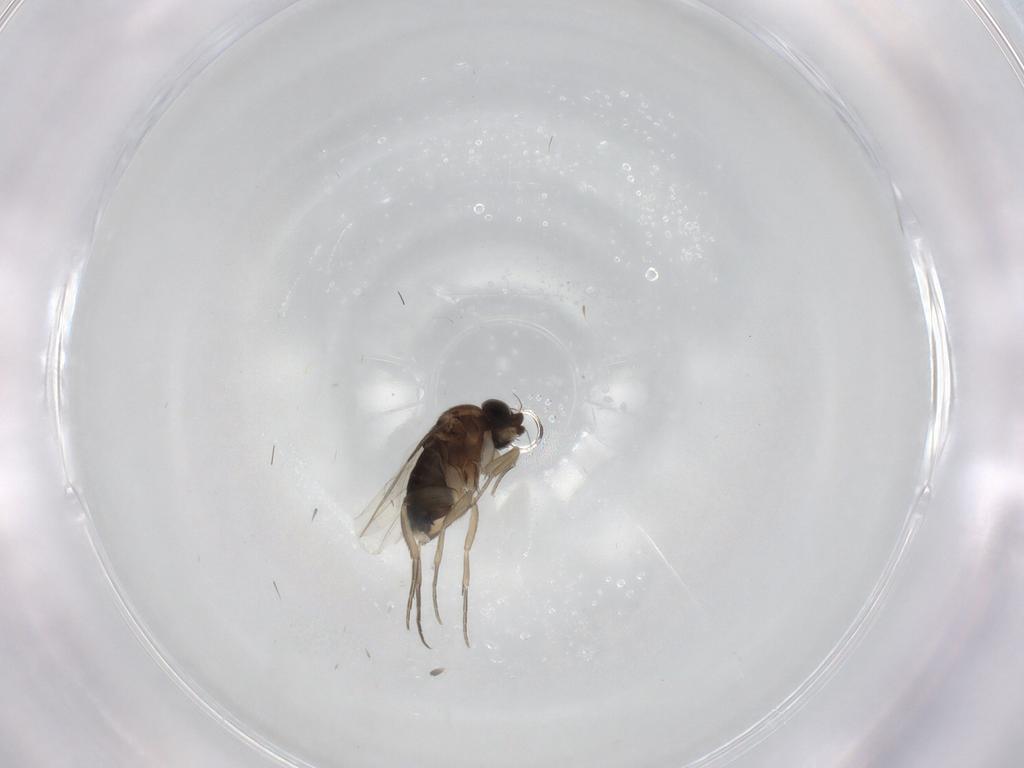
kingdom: Animalia
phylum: Arthropoda
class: Insecta
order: Diptera
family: Phoridae
